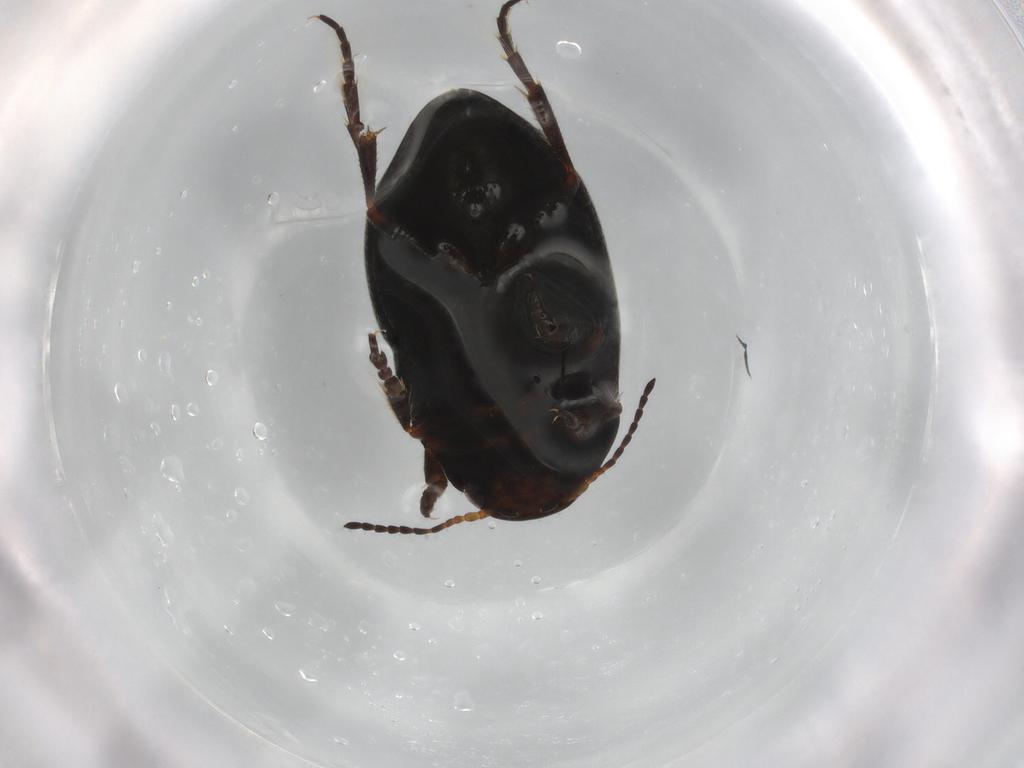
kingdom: Animalia
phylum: Arthropoda
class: Insecta
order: Coleoptera
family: Dytiscidae
